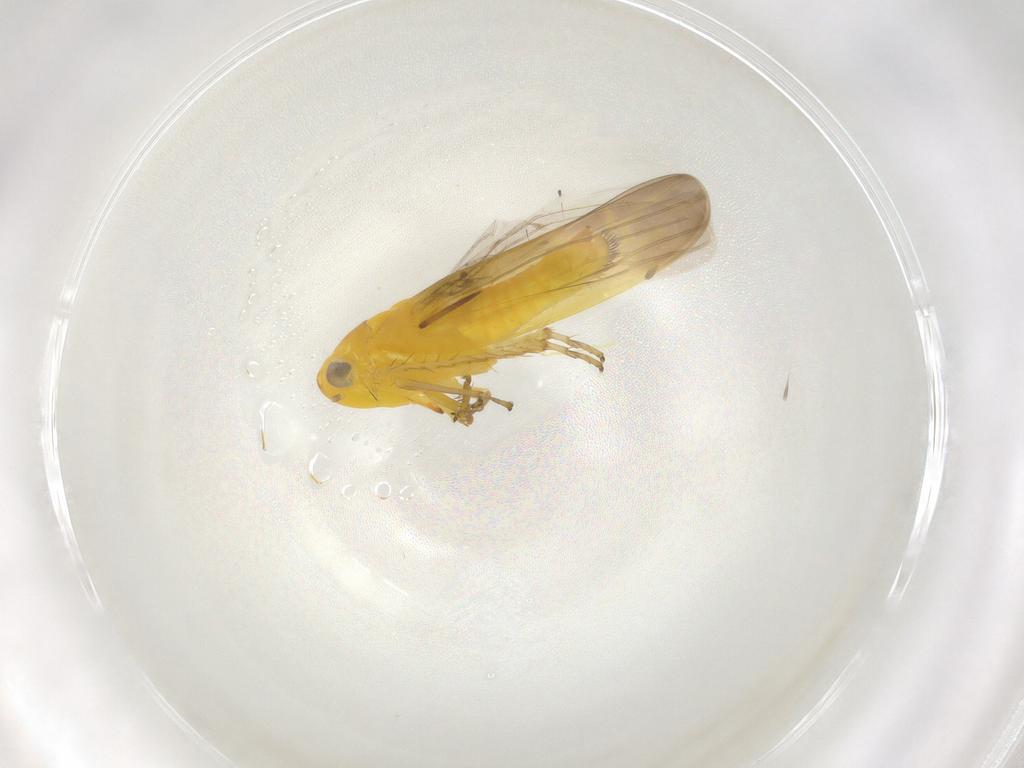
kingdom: Animalia
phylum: Arthropoda
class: Insecta
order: Hemiptera
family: Cicadellidae
